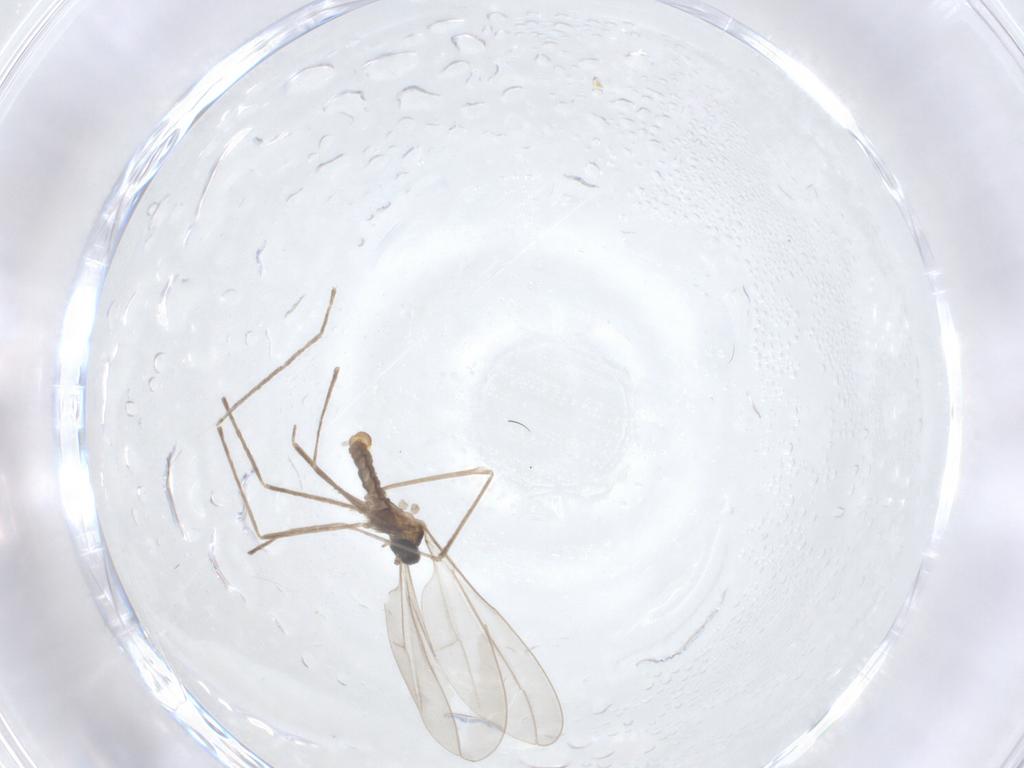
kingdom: Animalia
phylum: Arthropoda
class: Insecta
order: Diptera
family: Cecidomyiidae
